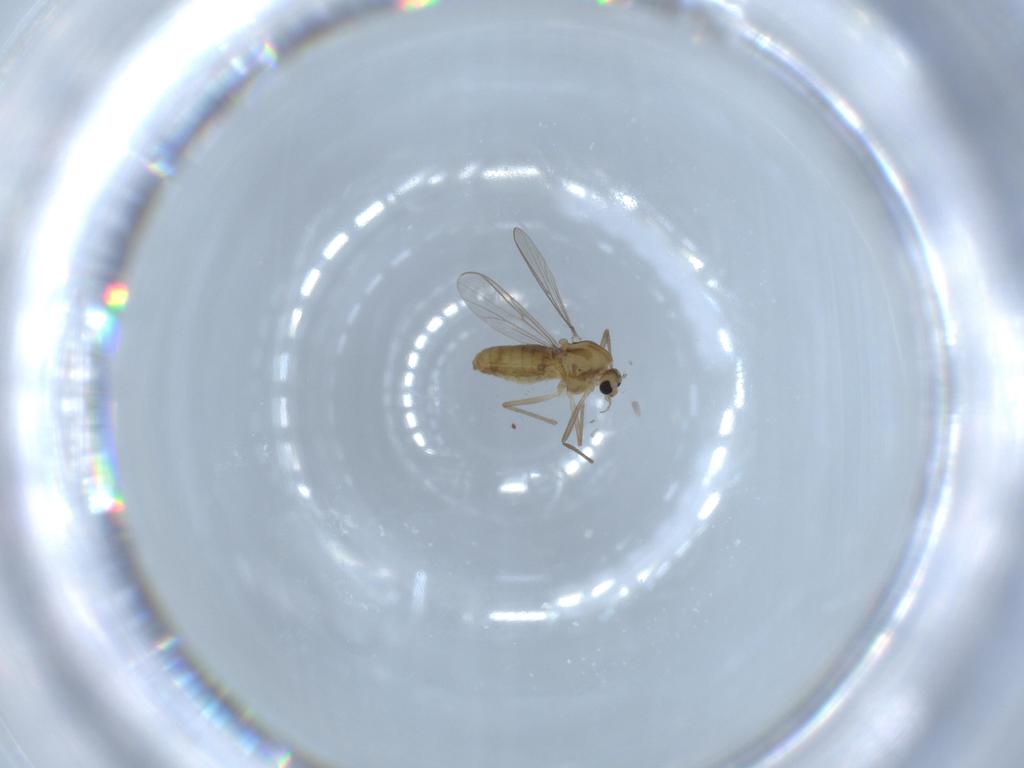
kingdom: Animalia
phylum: Arthropoda
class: Insecta
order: Diptera
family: Chironomidae
